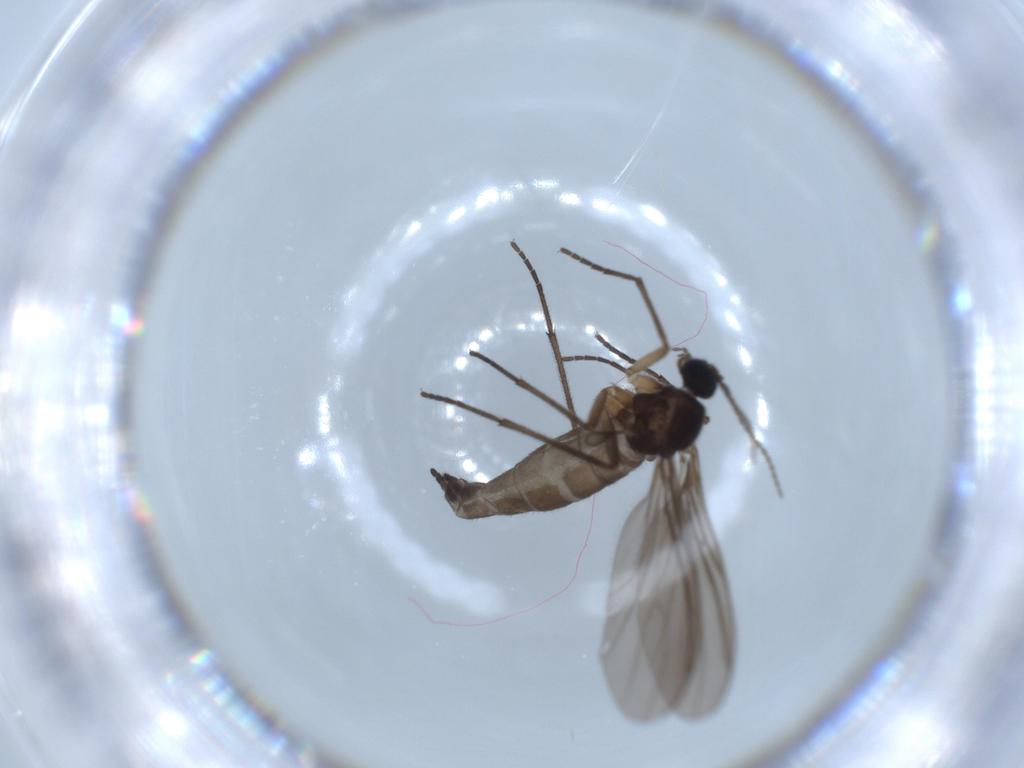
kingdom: Animalia
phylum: Arthropoda
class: Insecta
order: Diptera
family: Sciaridae
